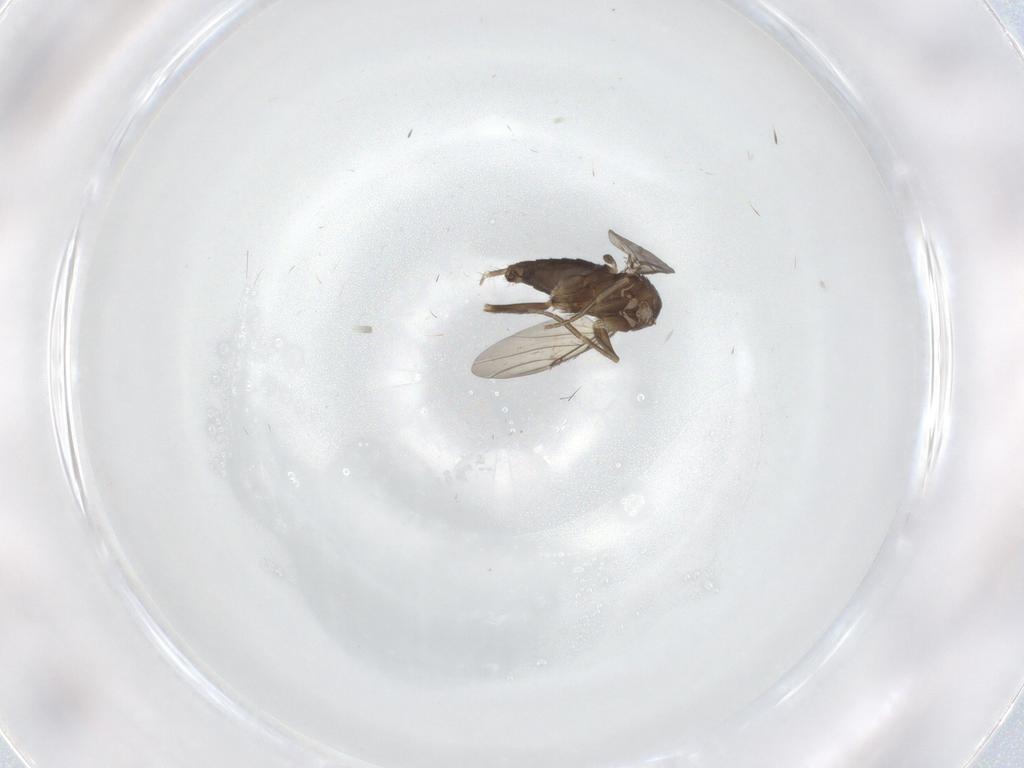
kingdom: Animalia
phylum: Arthropoda
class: Insecta
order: Diptera
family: Phoridae
